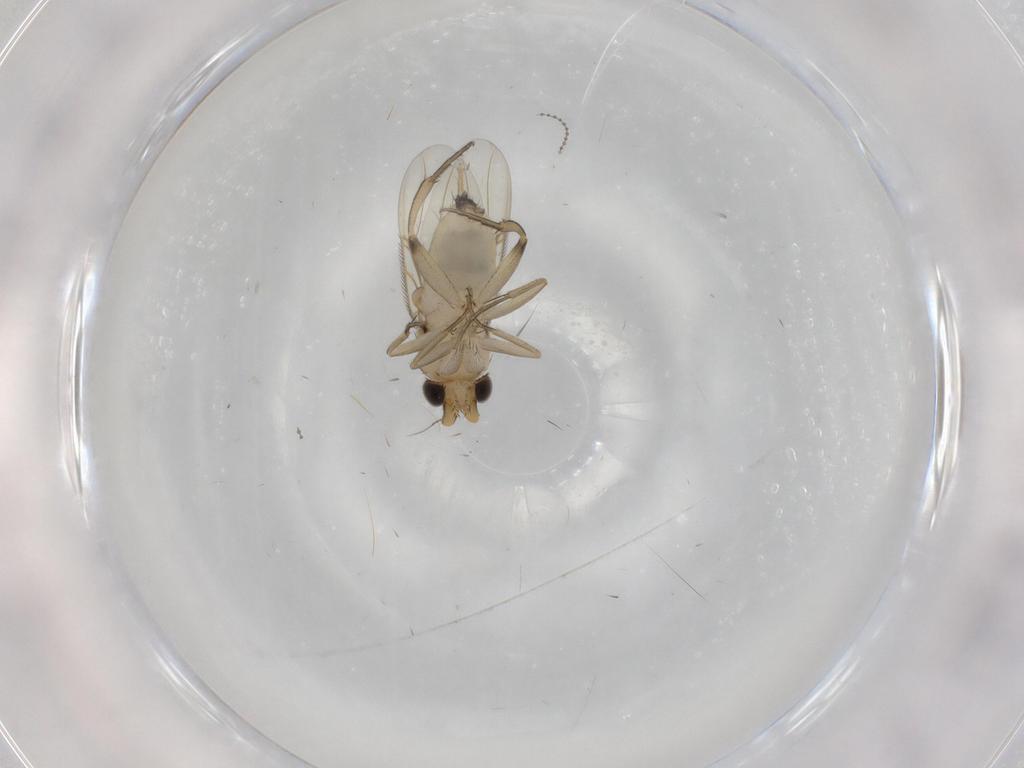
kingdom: Animalia
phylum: Arthropoda
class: Insecta
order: Diptera
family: Phoridae
